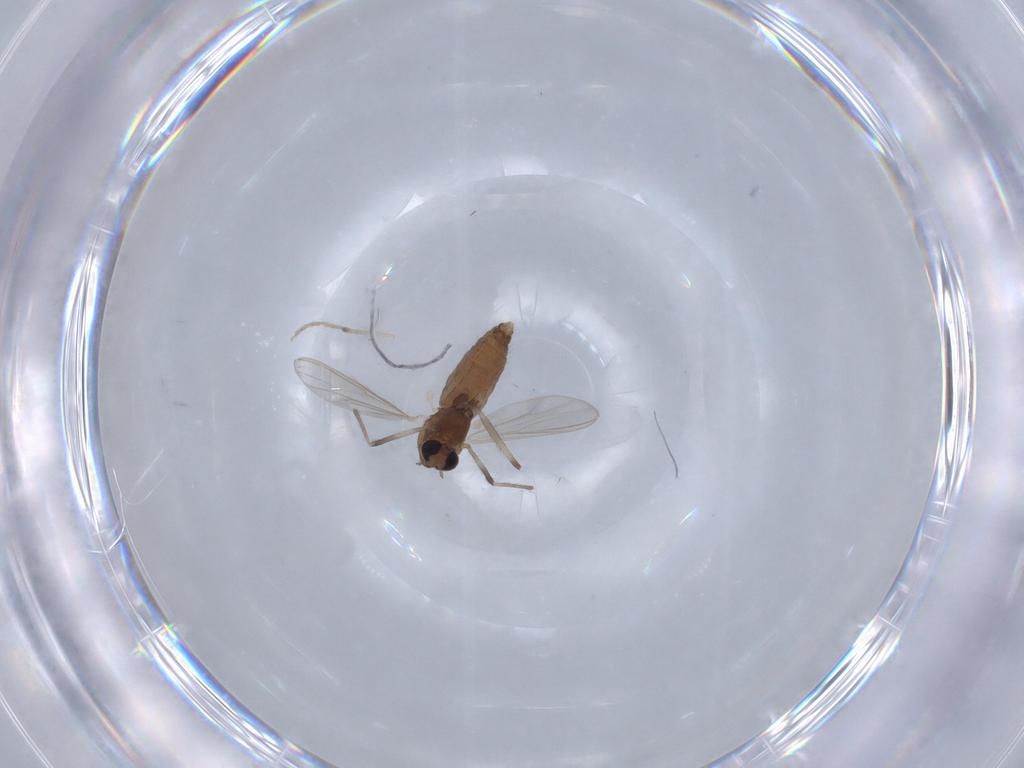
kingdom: Animalia
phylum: Arthropoda
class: Insecta
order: Diptera
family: Chironomidae
